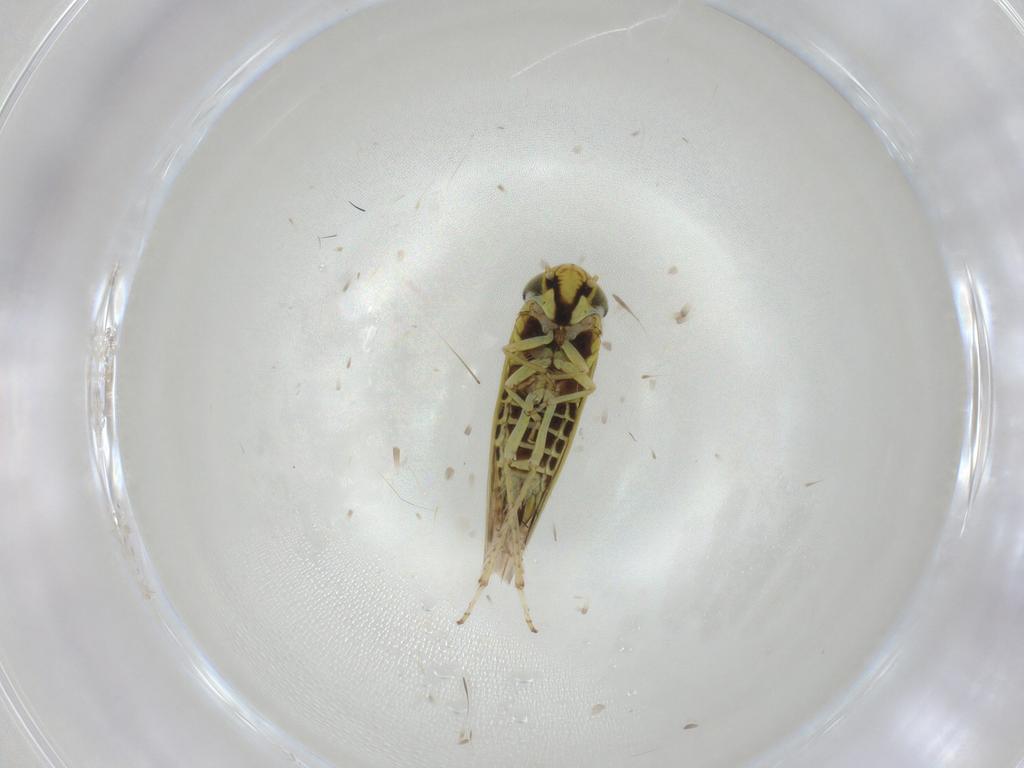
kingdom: Animalia
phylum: Arthropoda
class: Insecta
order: Hemiptera
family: Cicadellidae
